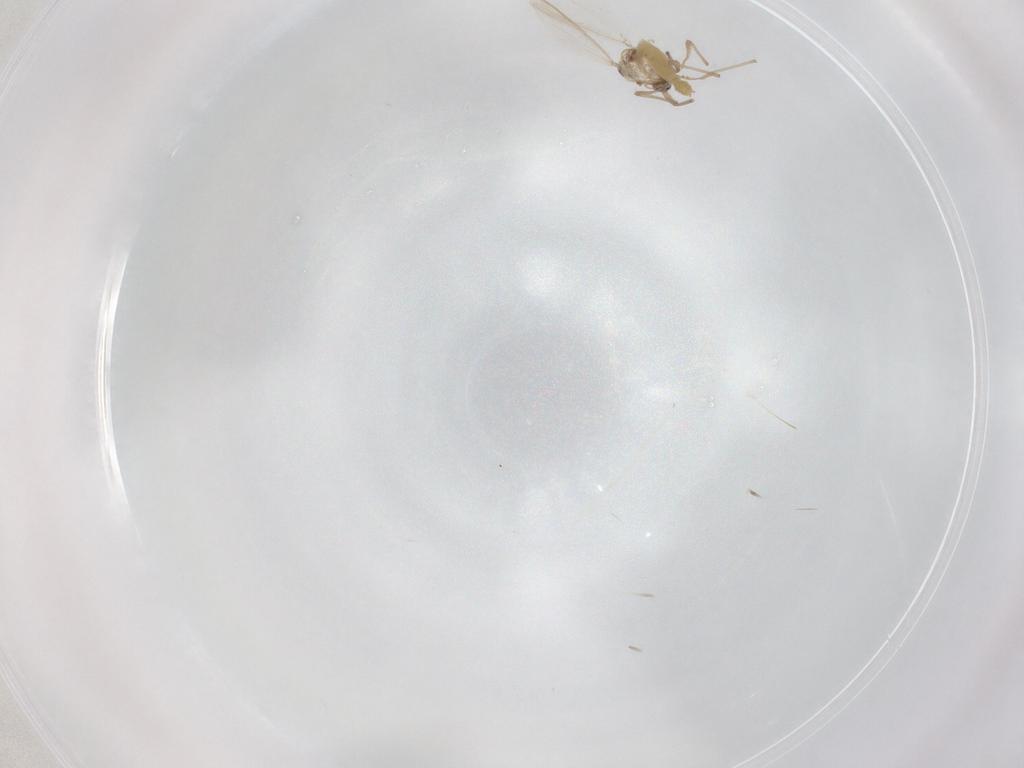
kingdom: Animalia
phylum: Arthropoda
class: Insecta
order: Diptera
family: Chironomidae
